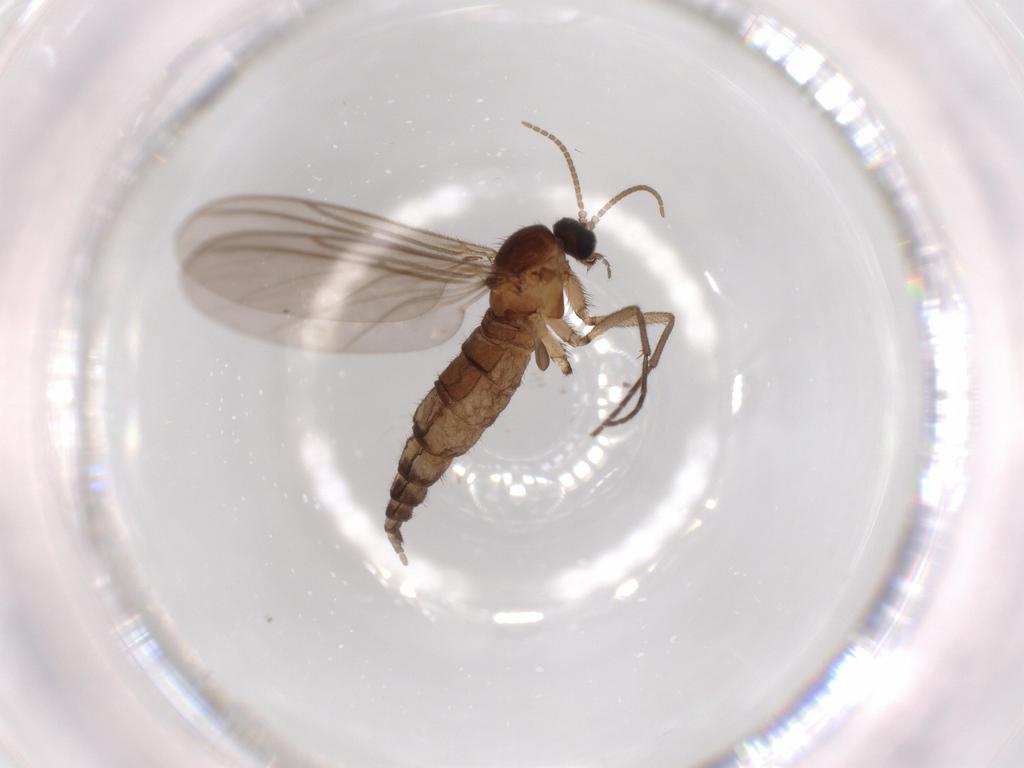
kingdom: Animalia
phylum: Arthropoda
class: Insecta
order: Diptera
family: Sciaridae
